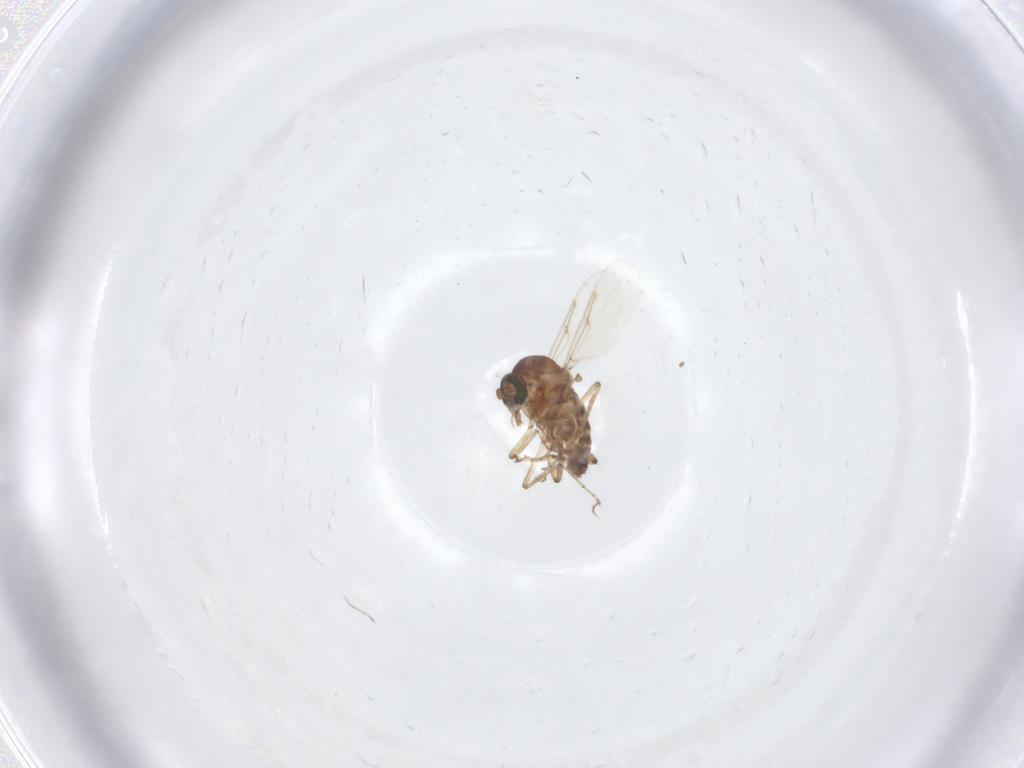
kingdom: Animalia
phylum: Arthropoda
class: Insecta
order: Diptera
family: Ceratopogonidae
